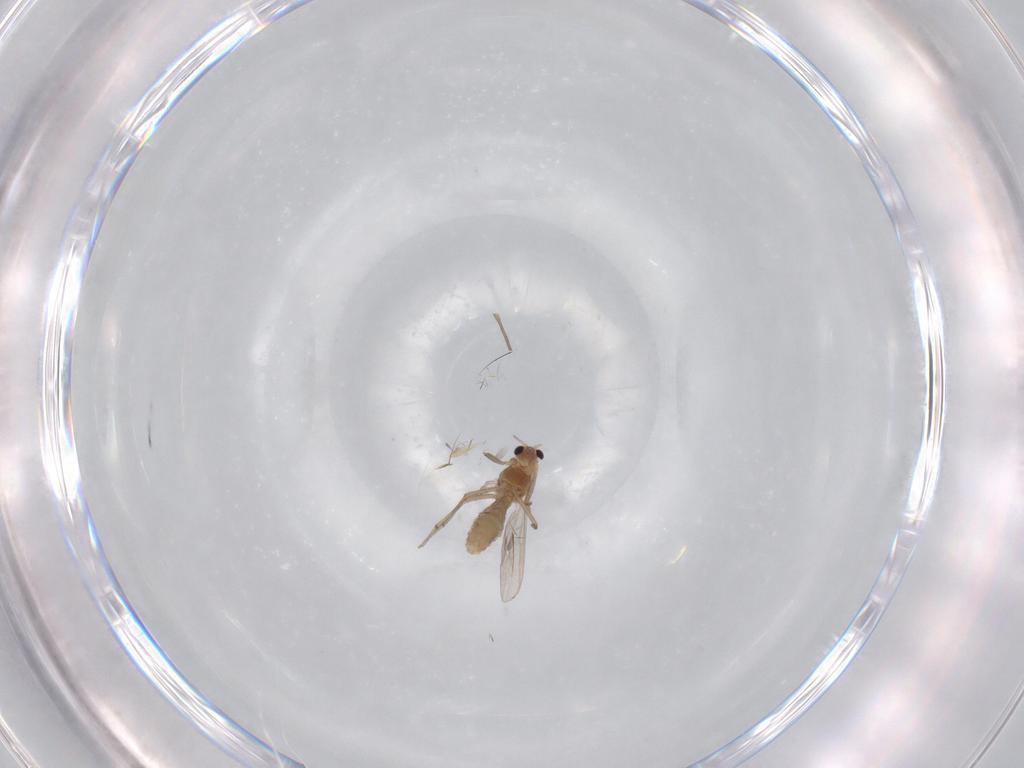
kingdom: Animalia
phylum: Arthropoda
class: Insecta
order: Diptera
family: Chironomidae
